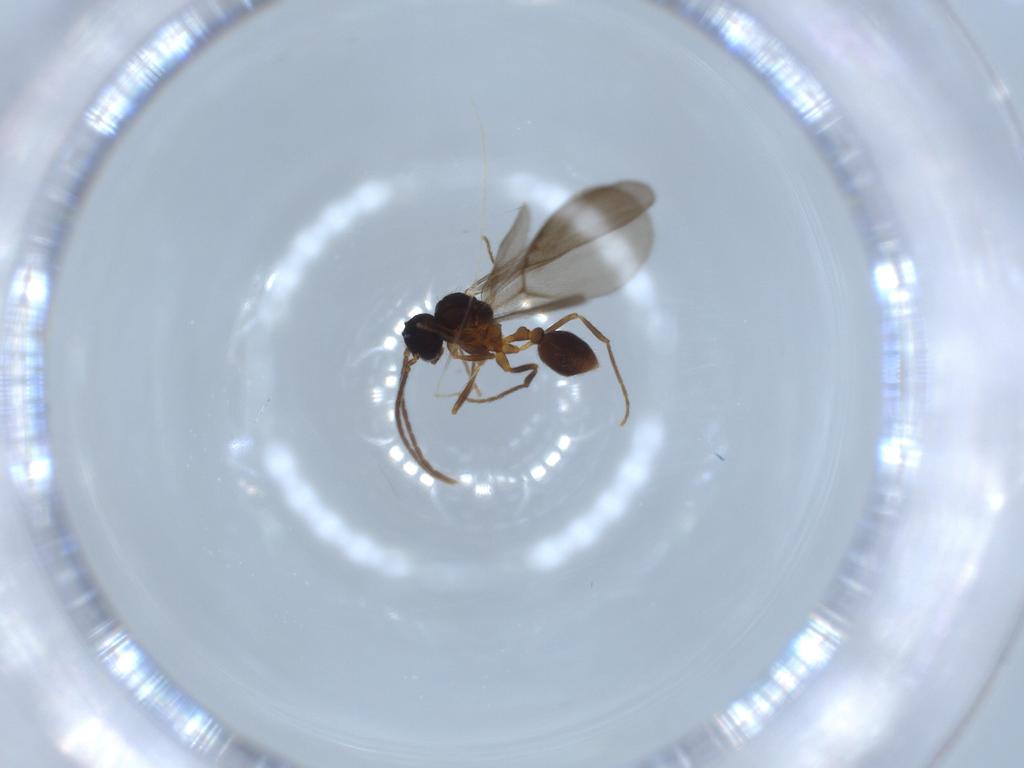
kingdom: Animalia
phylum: Arthropoda
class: Insecta
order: Hymenoptera
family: Formicidae
